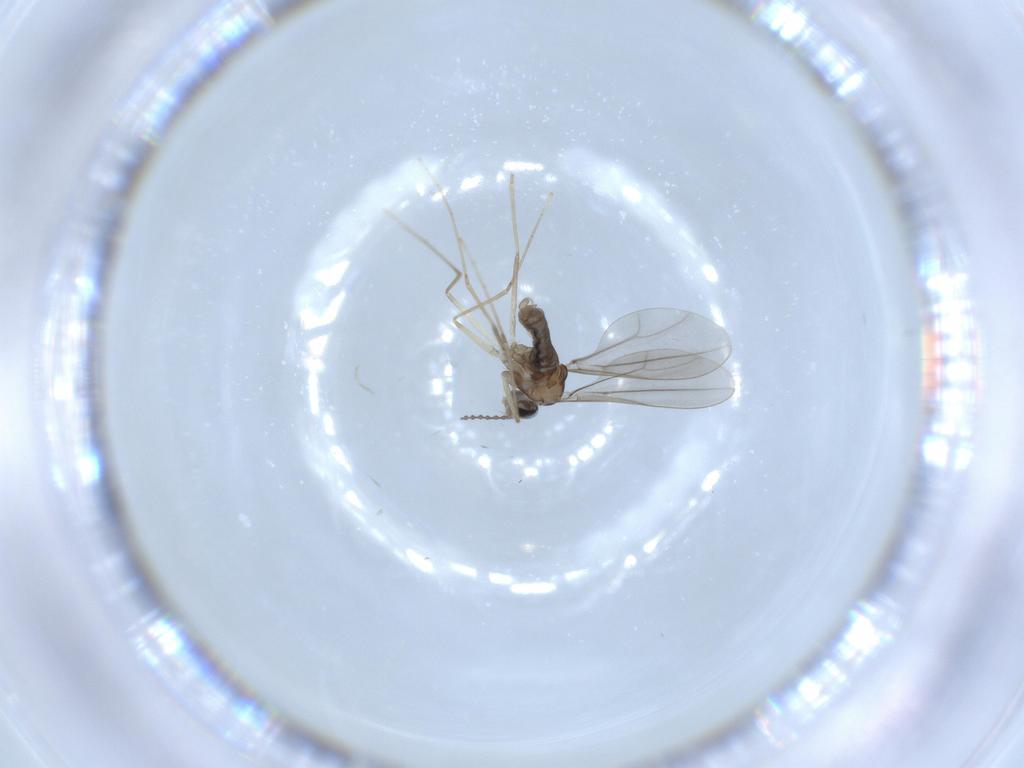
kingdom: Animalia
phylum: Arthropoda
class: Insecta
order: Diptera
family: Cecidomyiidae
